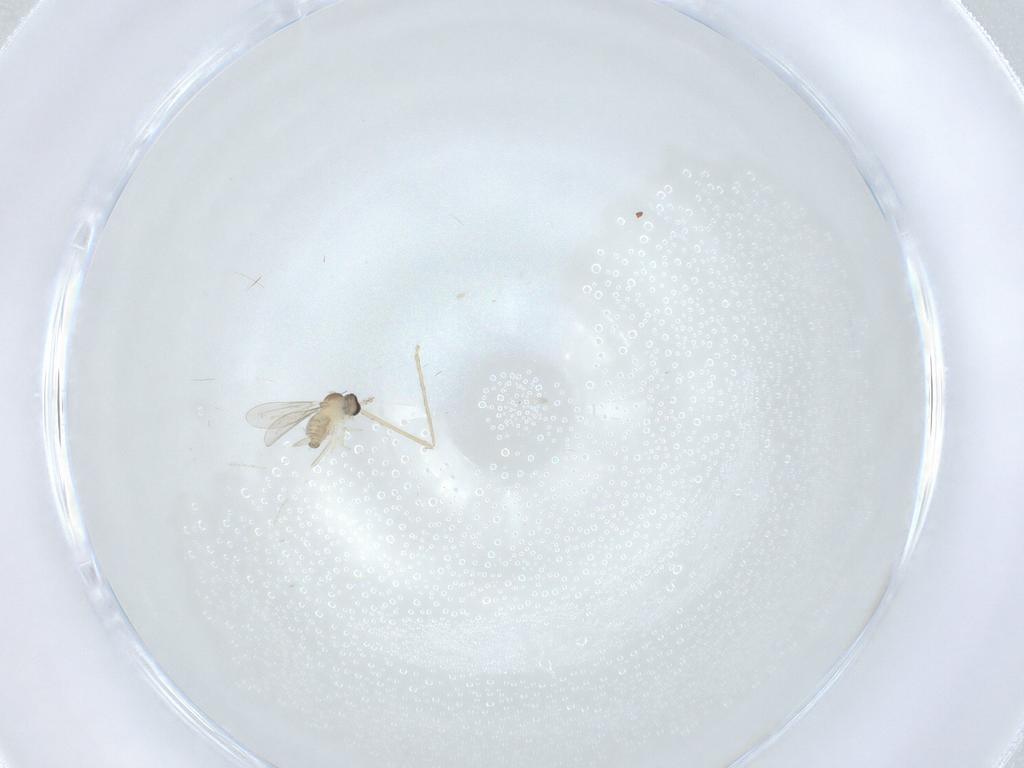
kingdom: Animalia
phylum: Arthropoda
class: Insecta
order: Diptera
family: Cecidomyiidae
